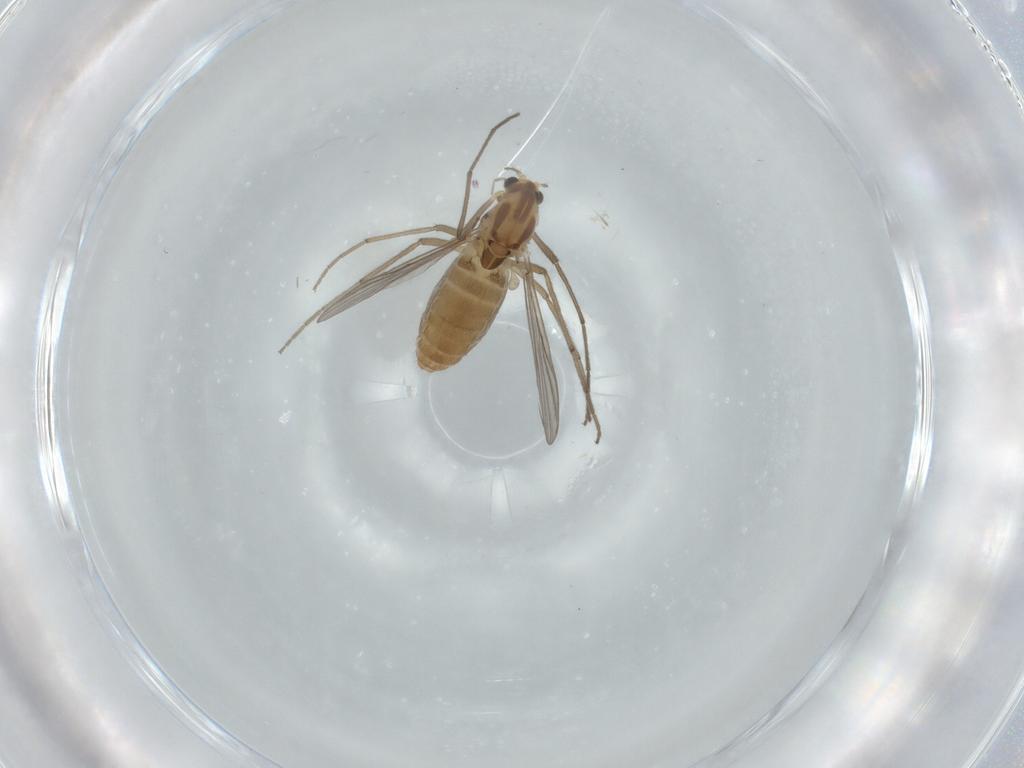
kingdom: Animalia
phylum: Arthropoda
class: Insecta
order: Diptera
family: Chironomidae
